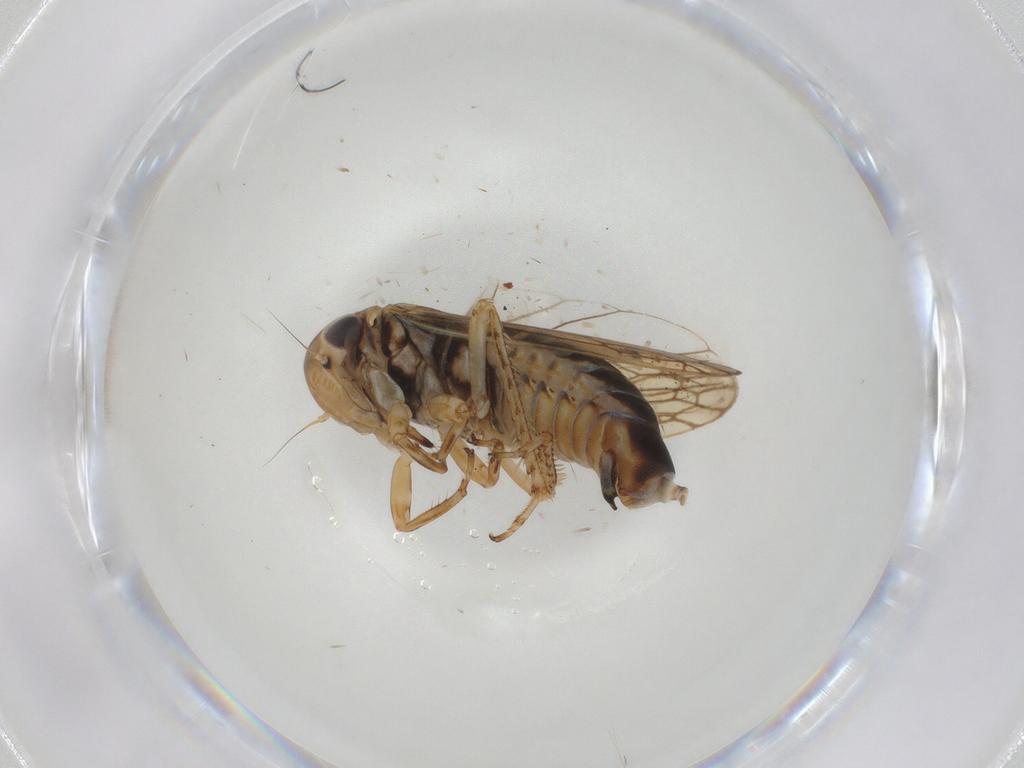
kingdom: Animalia
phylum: Arthropoda
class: Insecta
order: Hemiptera
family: Cicadellidae
